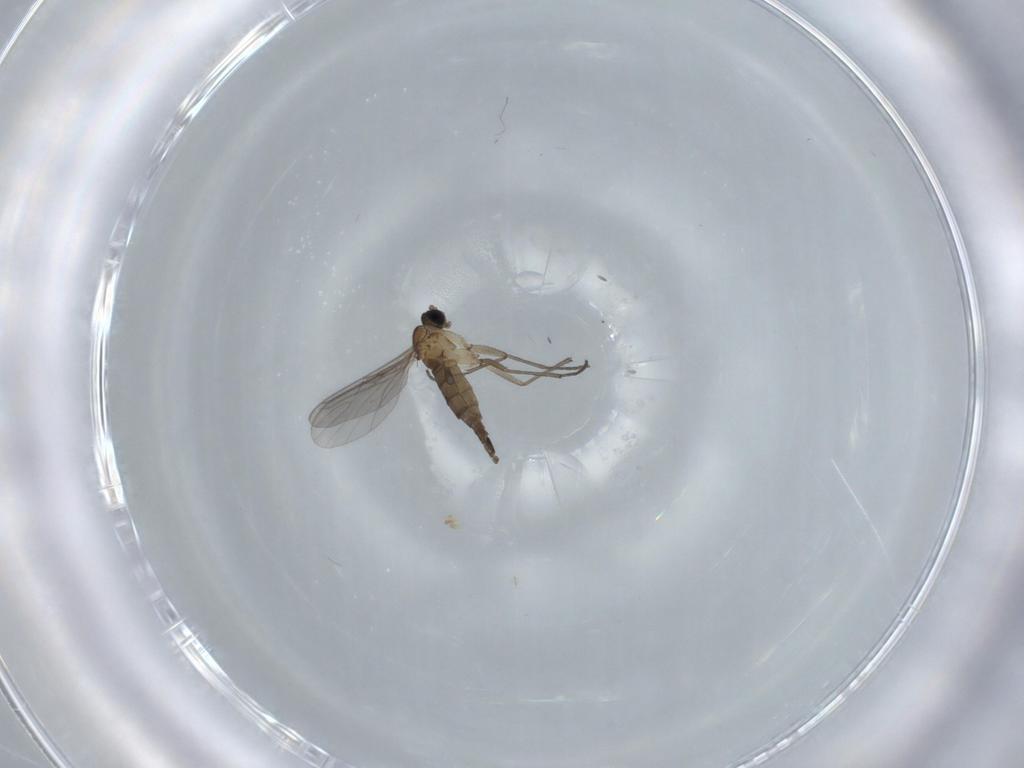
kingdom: Animalia
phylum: Arthropoda
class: Insecta
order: Diptera
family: Sciaridae
